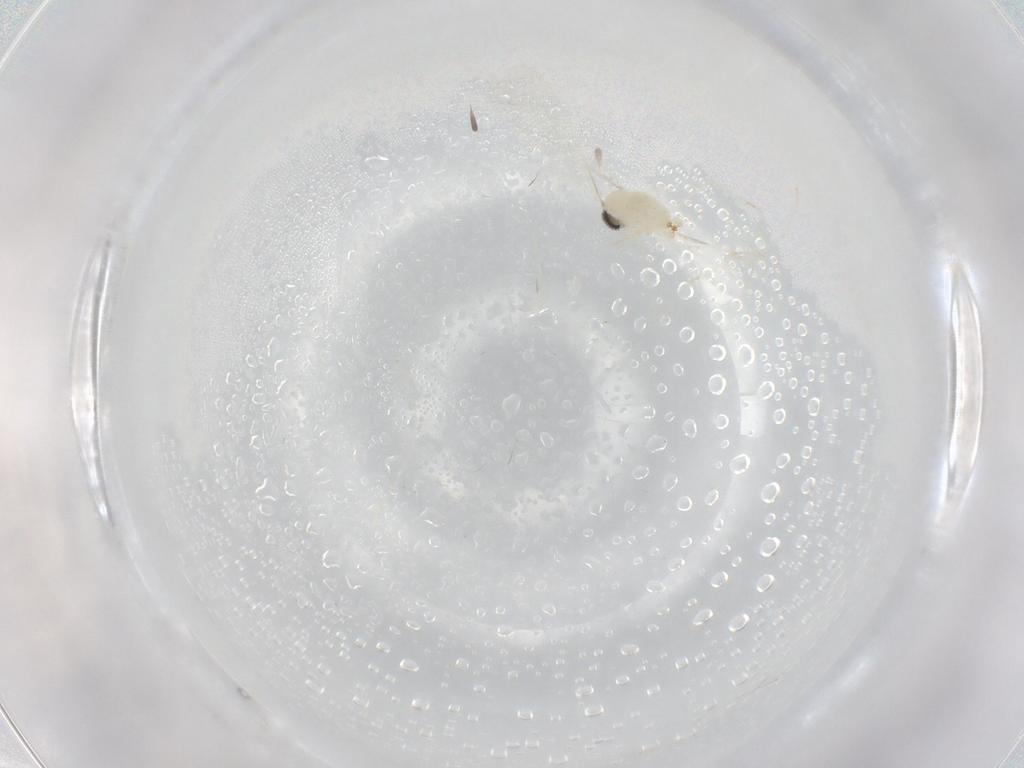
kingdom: Animalia
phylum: Arthropoda
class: Insecta
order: Diptera
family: Cecidomyiidae
